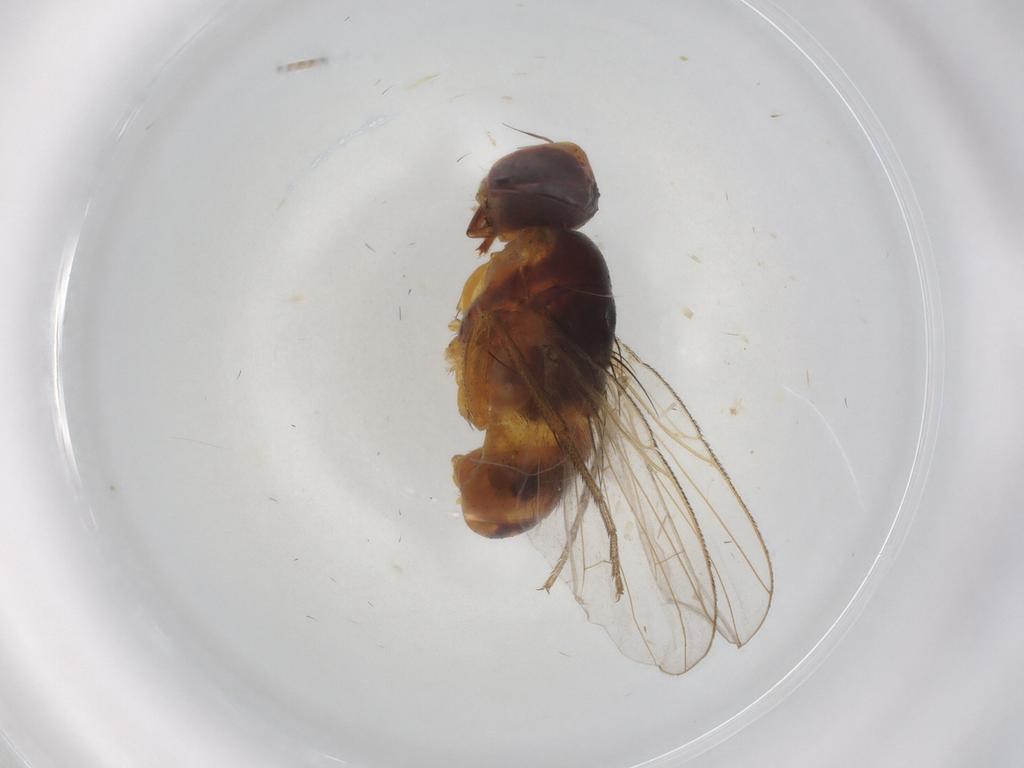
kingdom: Animalia
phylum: Arthropoda
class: Insecta
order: Diptera
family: Muscidae
